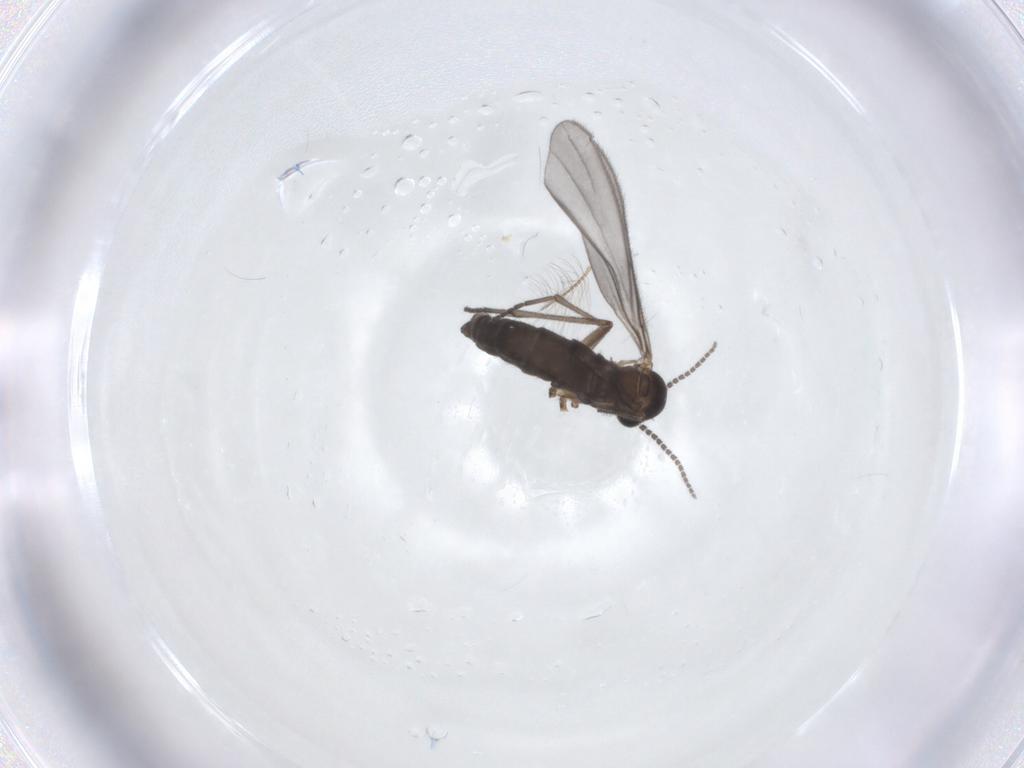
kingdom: Animalia
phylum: Arthropoda
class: Insecta
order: Diptera
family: Sciaridae
